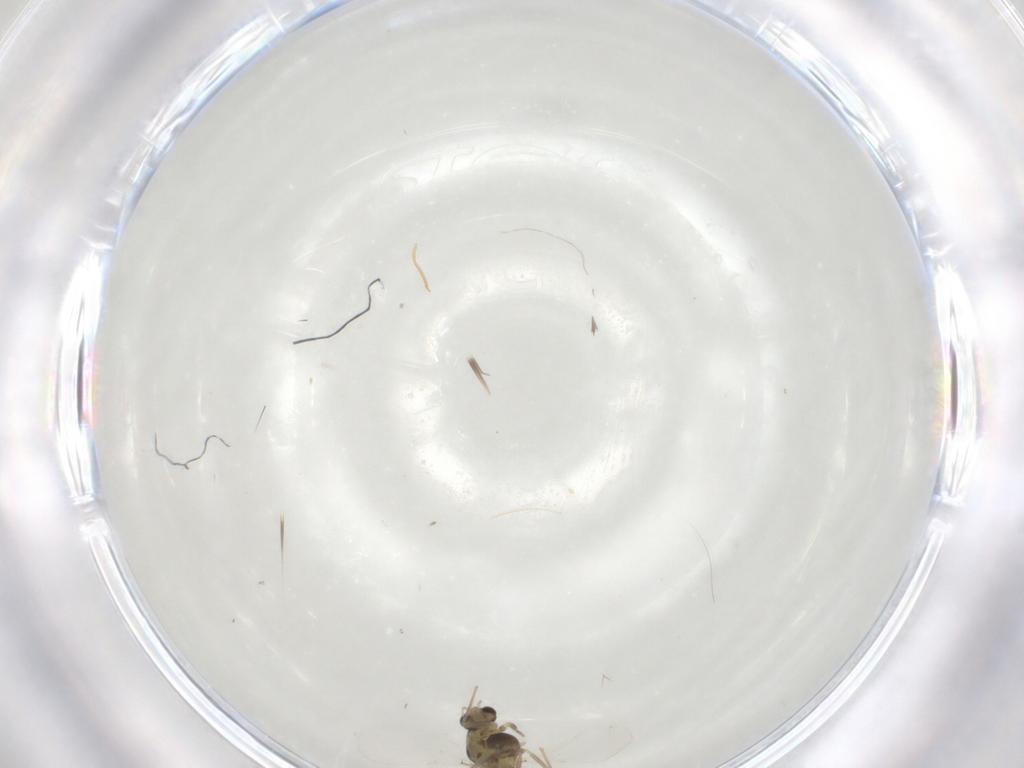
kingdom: Animalia
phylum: Arthropoda
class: Insecta
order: Diptera
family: Chironomidae
